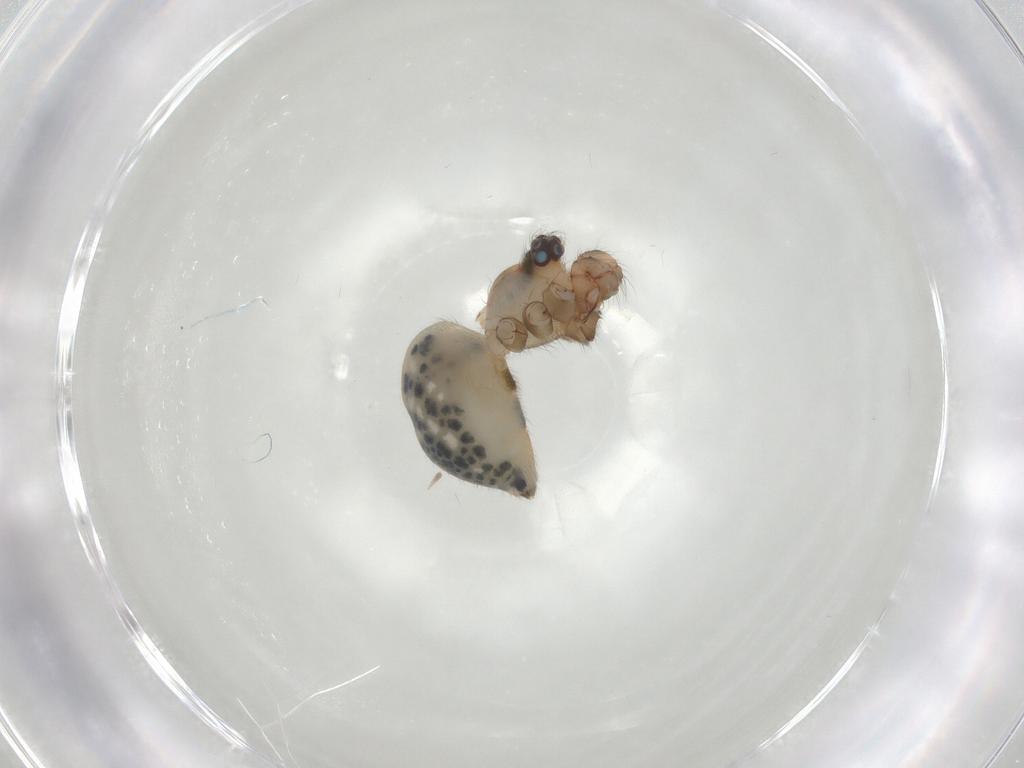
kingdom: Animalia
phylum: Arthropoda
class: Arachnida
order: Araneae
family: Pholcidae
